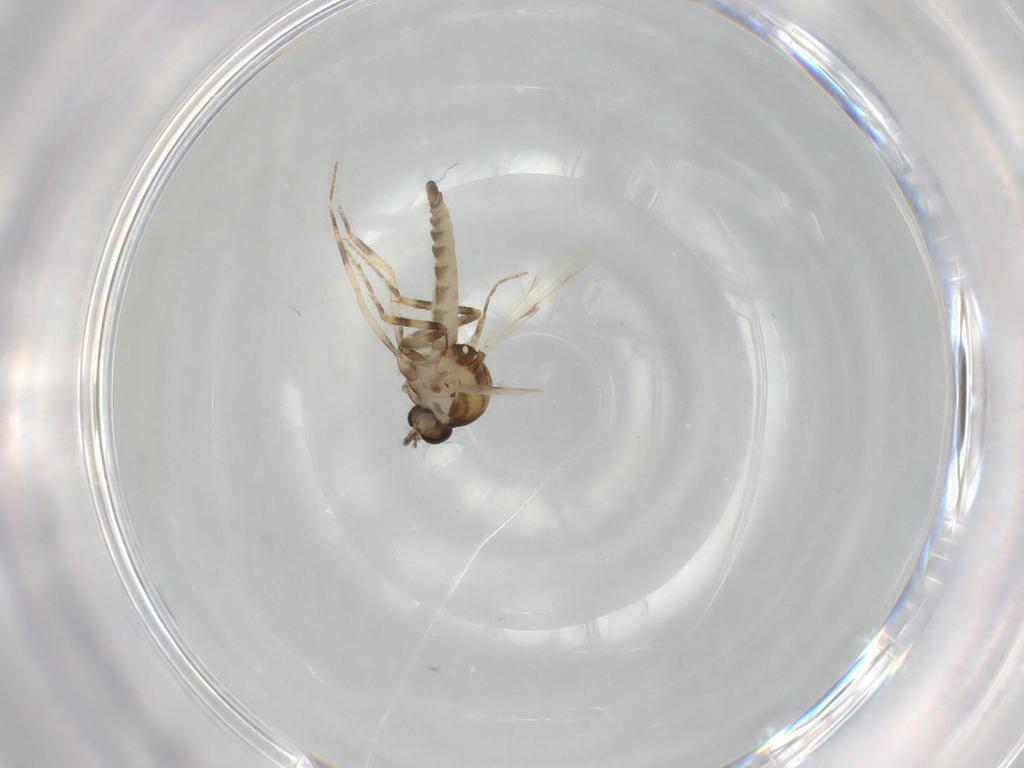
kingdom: Animalia
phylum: Arthropoda
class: Insecta
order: Diptera
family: Ceratopogonidae
